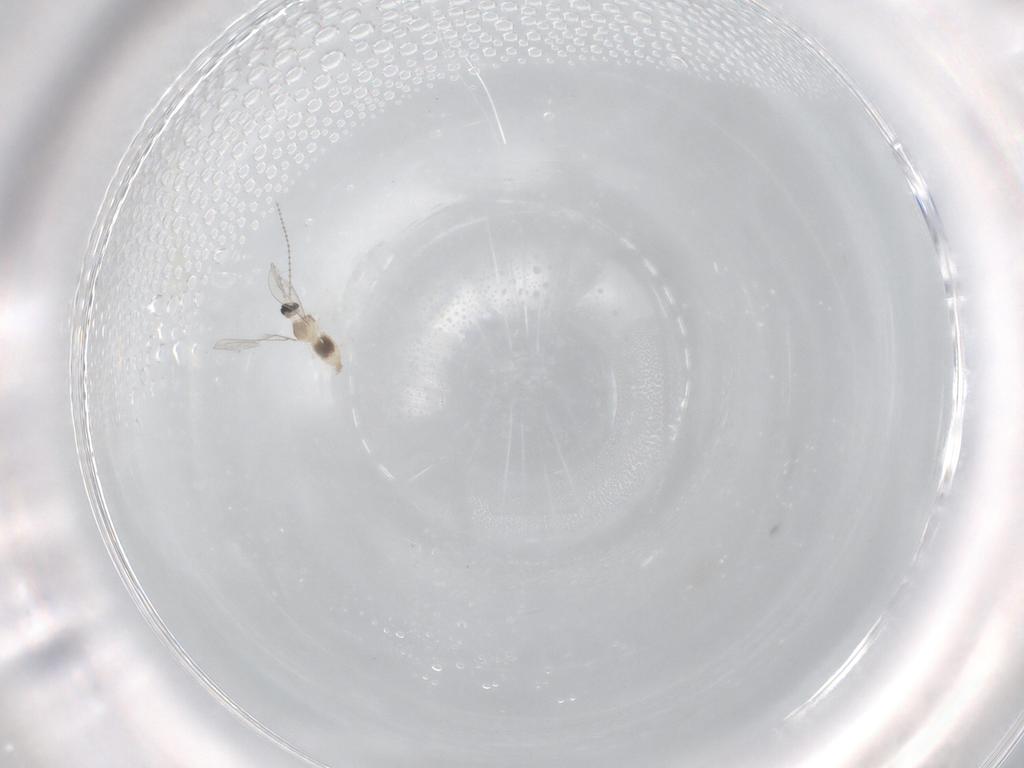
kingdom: Animalia
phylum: Arthropoda
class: Insecta
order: Diptera
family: Cecidomyiidae
